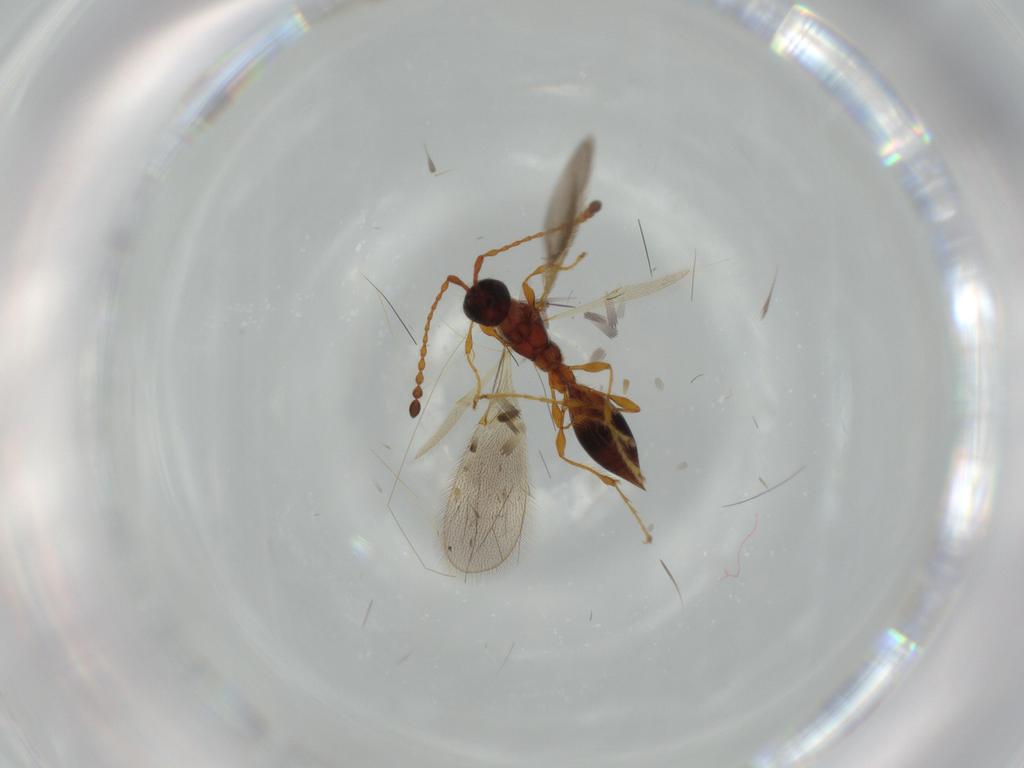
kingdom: Animalia
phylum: Arthropoda
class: Insecta
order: Hymenoptera
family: Diapriidae
